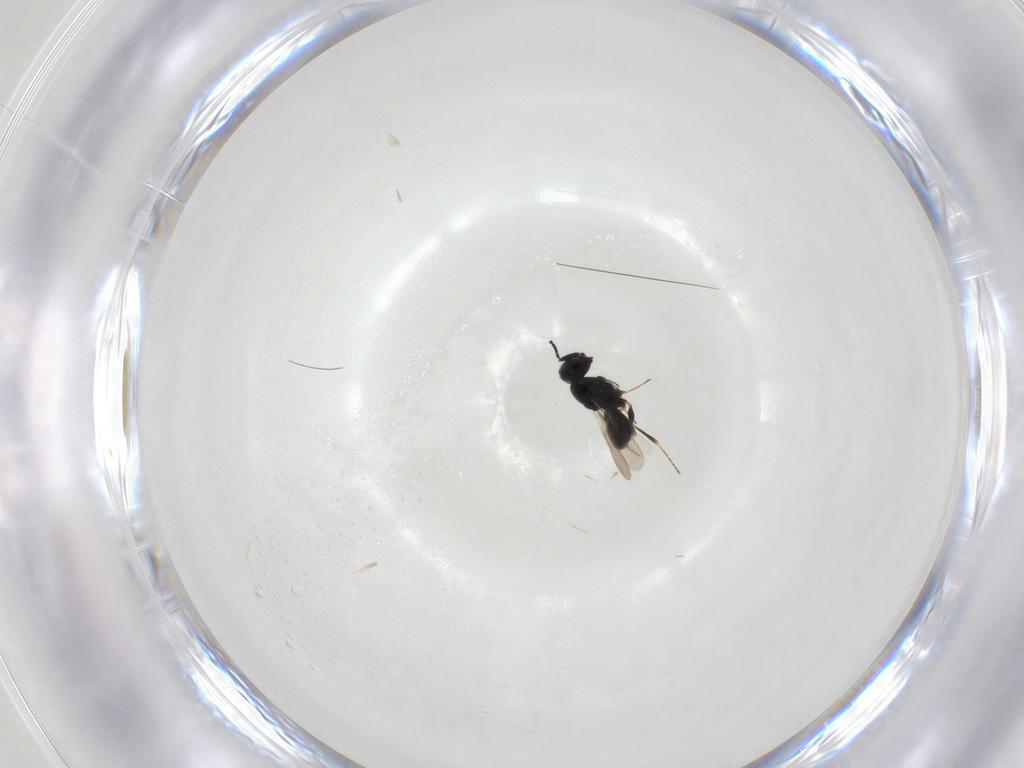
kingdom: Animalia
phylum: Arthropoda
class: Insecta
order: Hymenoptera
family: Scelionidae
